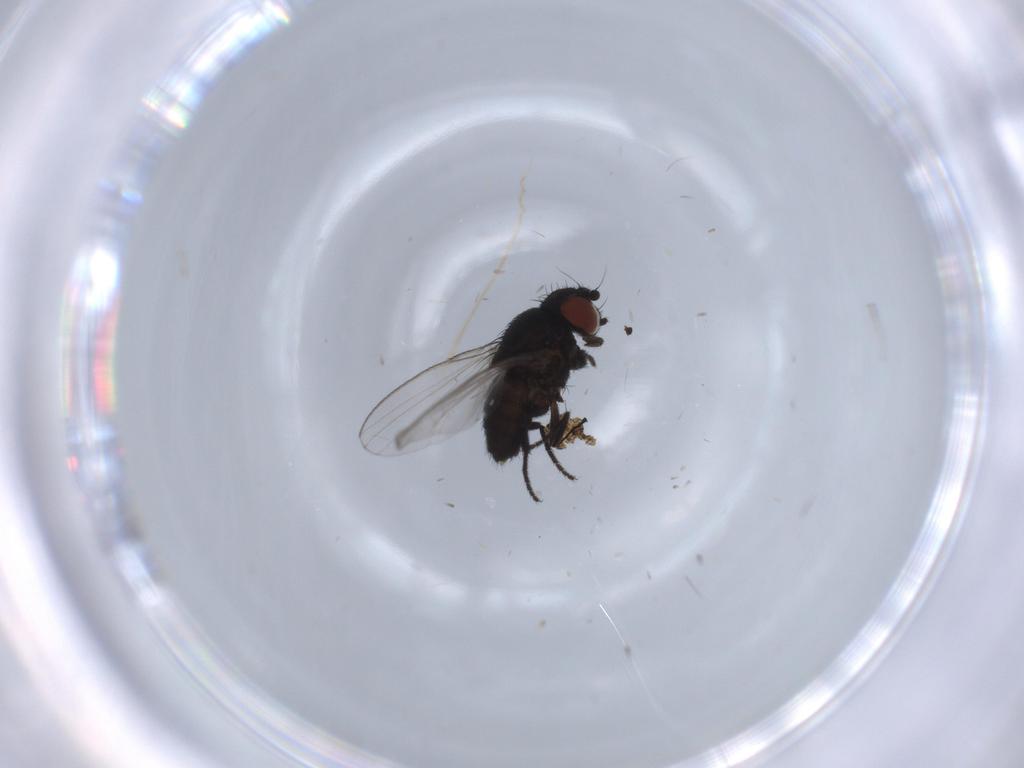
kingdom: Animalia
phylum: Arthropoda
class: Insecta
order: Diptera
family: Milichiidae
